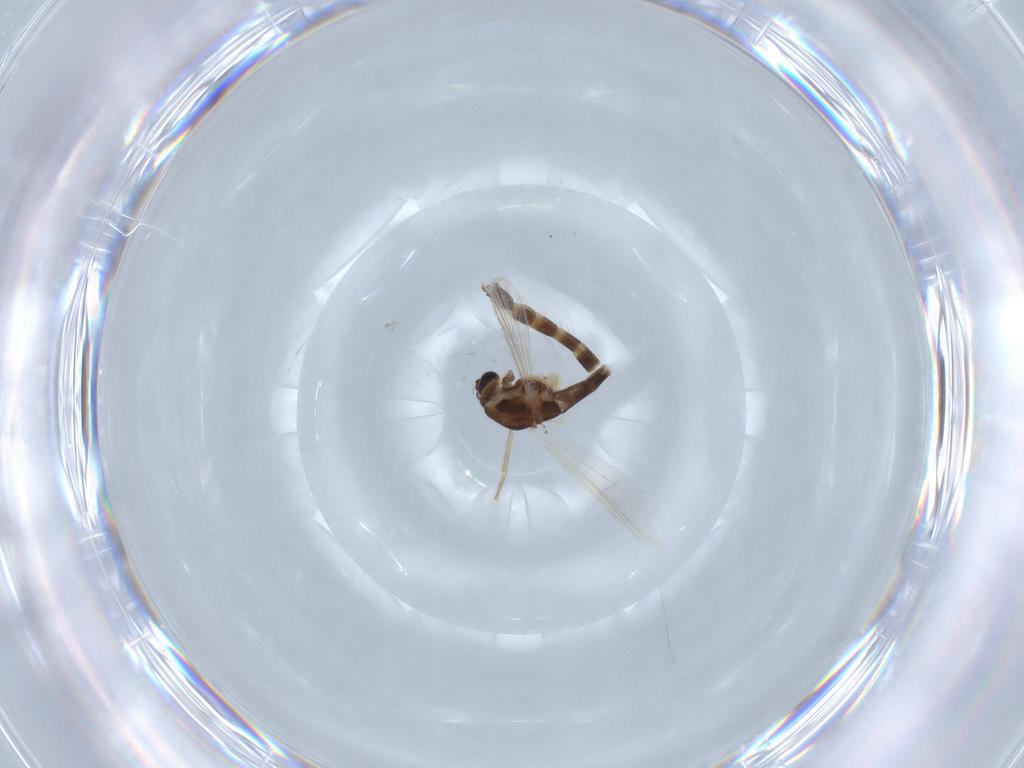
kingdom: Animalia
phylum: Arthropoda
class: Insecta
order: Diptera
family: Chironomidae
